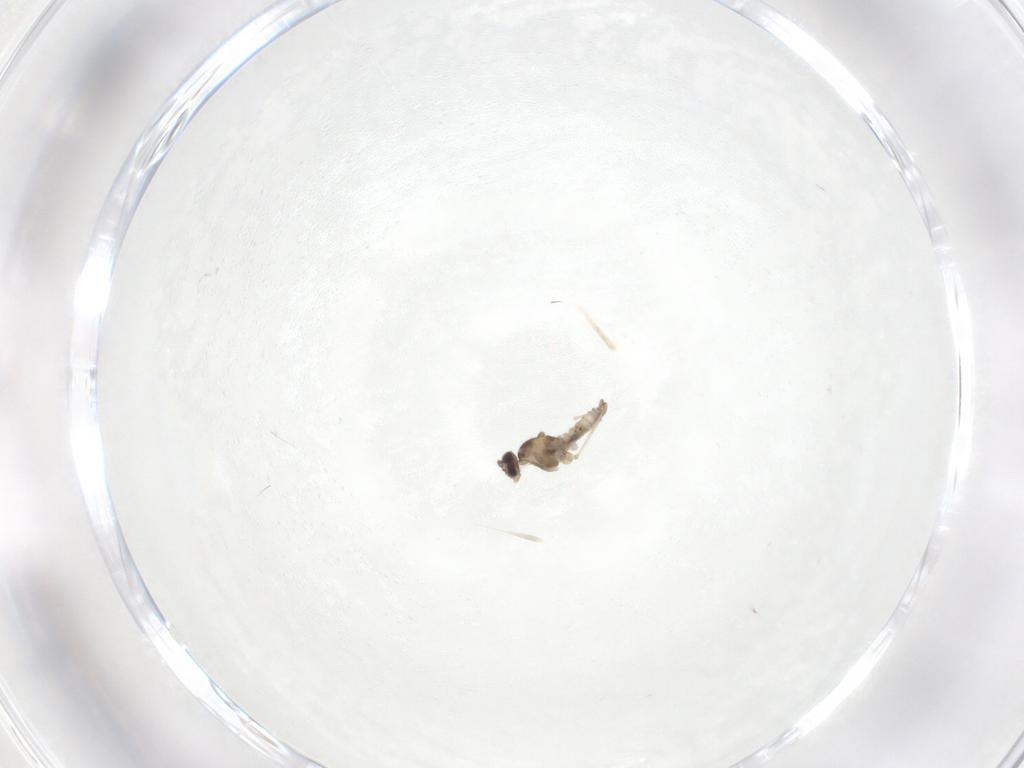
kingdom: Animalia
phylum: Arthropoda
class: Insecta
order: Diptera
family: Cecidomyiidae
